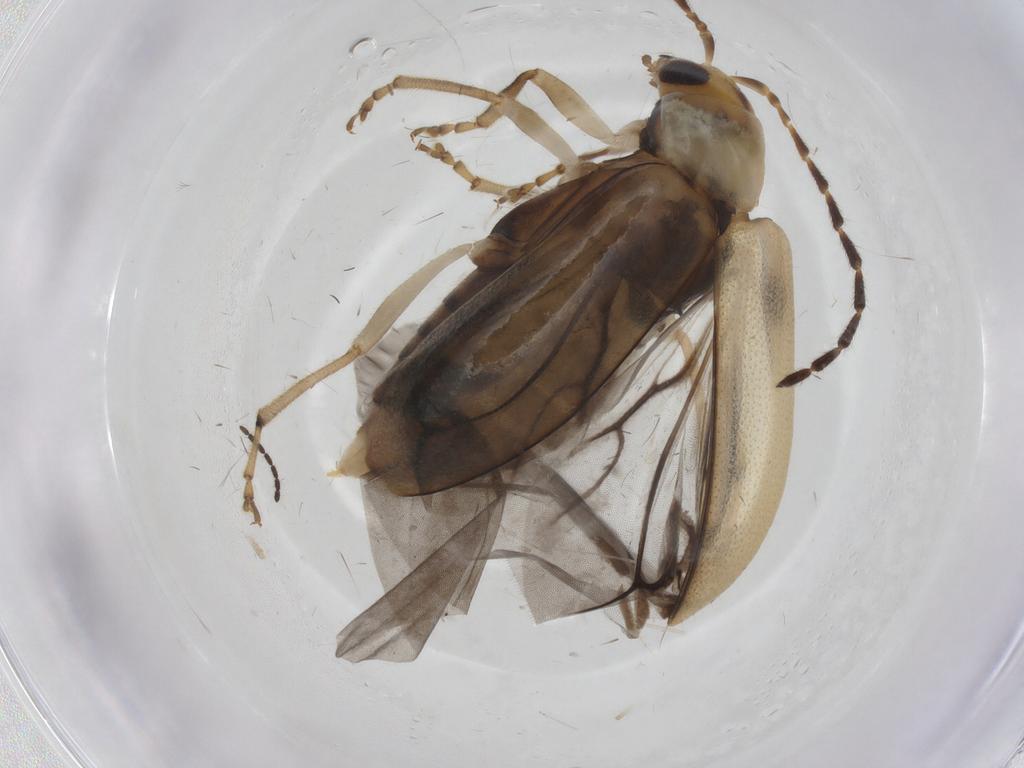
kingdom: Animalia
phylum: Arthropoda
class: Insecta
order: Coleoptera
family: Chrysomelidae
